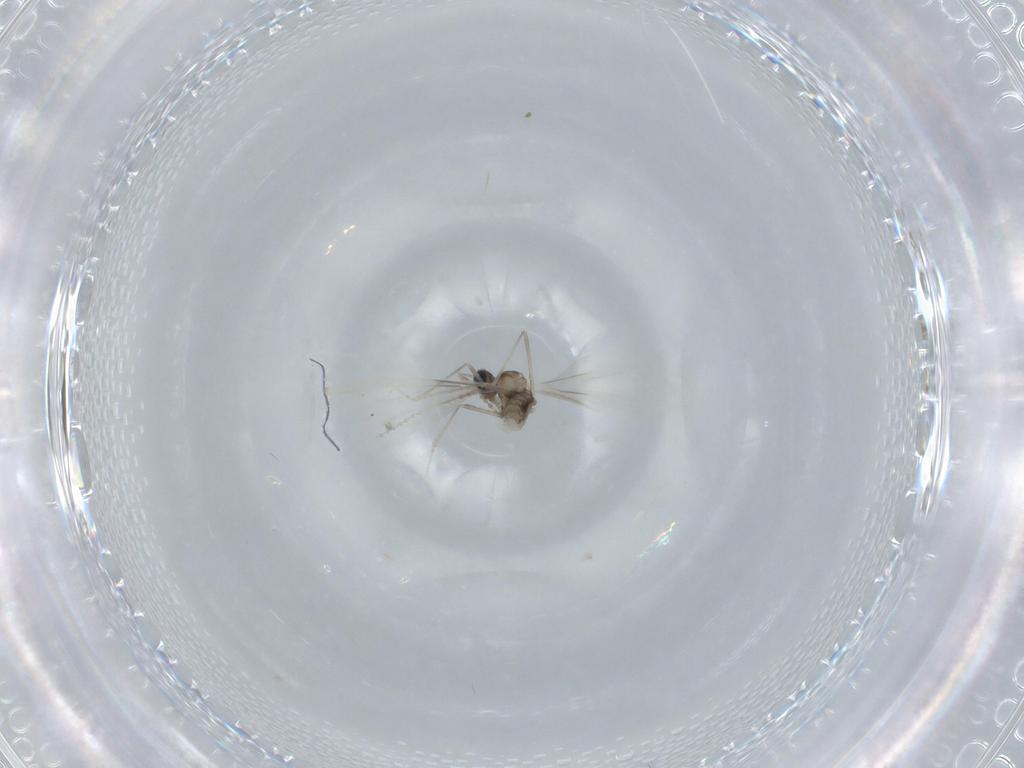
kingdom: Animalia
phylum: Arthropoda
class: Insecta
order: Diptera
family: Cecidomyiidae
